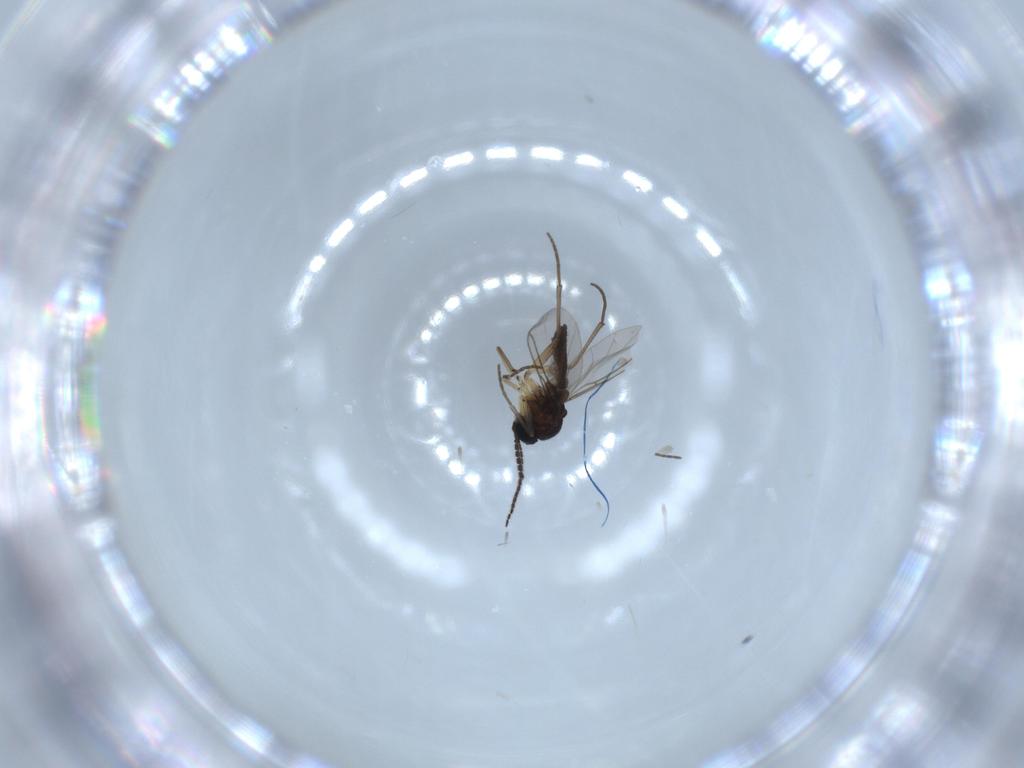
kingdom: Animalia
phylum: Arthropoda
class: Insecta
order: Diptera
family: Sciaridae
